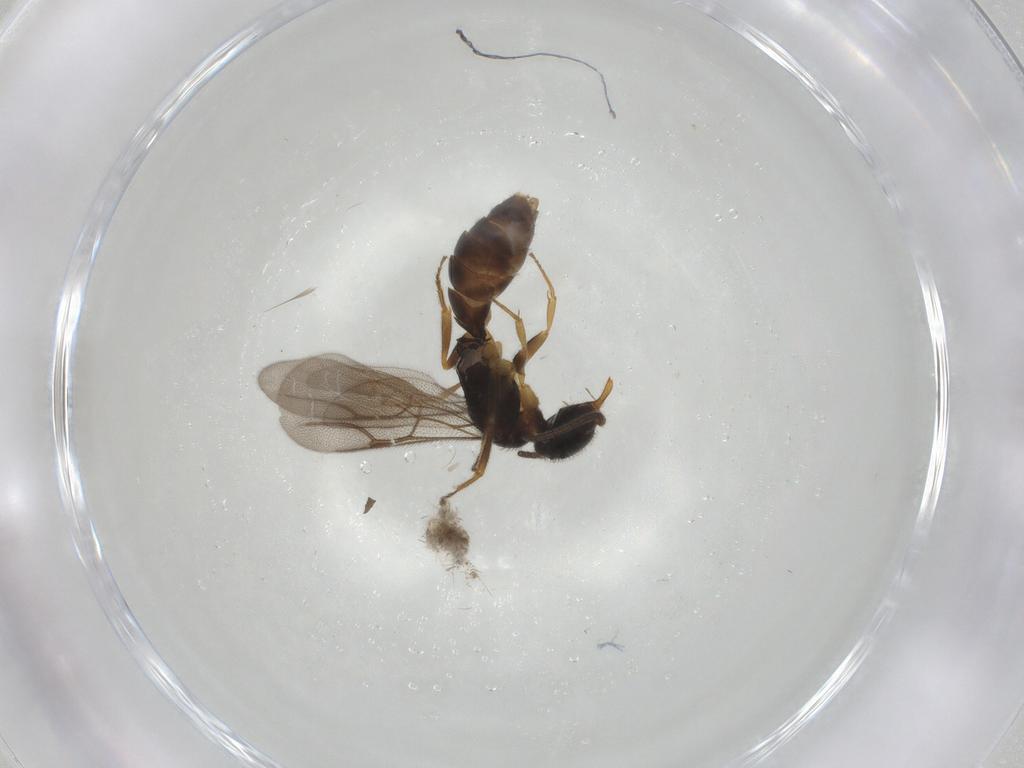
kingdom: Animalia
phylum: Arthropoda
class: Insecta
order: Hymenoptera
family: Bethylidae
